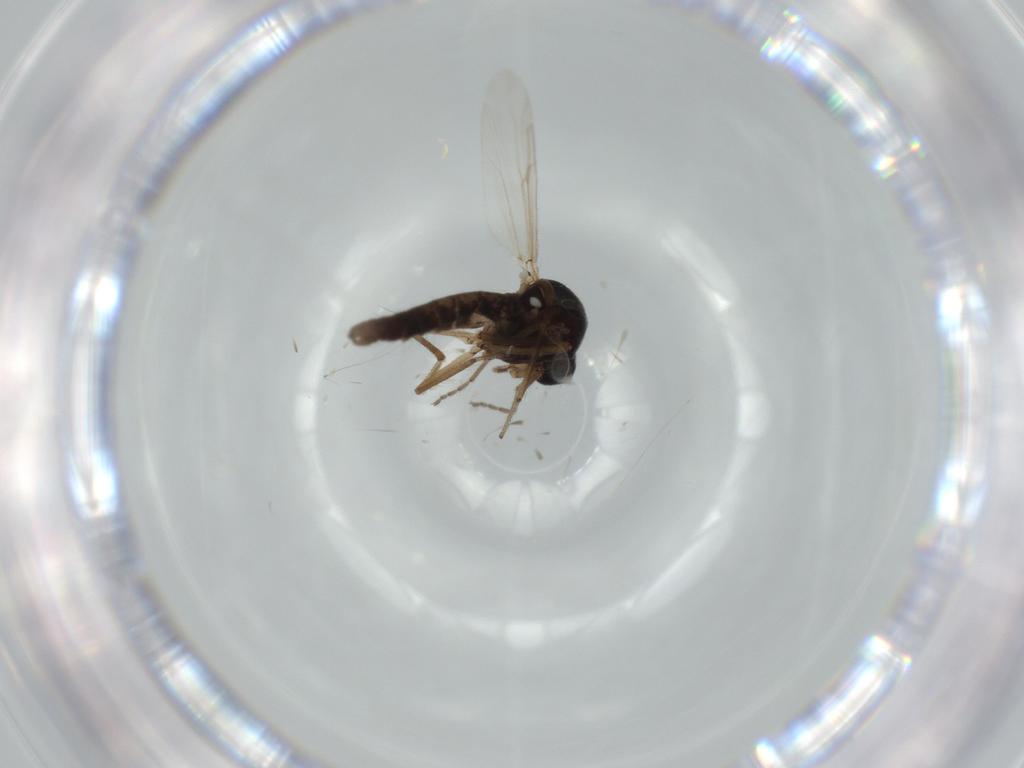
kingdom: Animalia
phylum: Arthropoda
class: Insecta
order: Diptera
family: Ceratopogonidae
